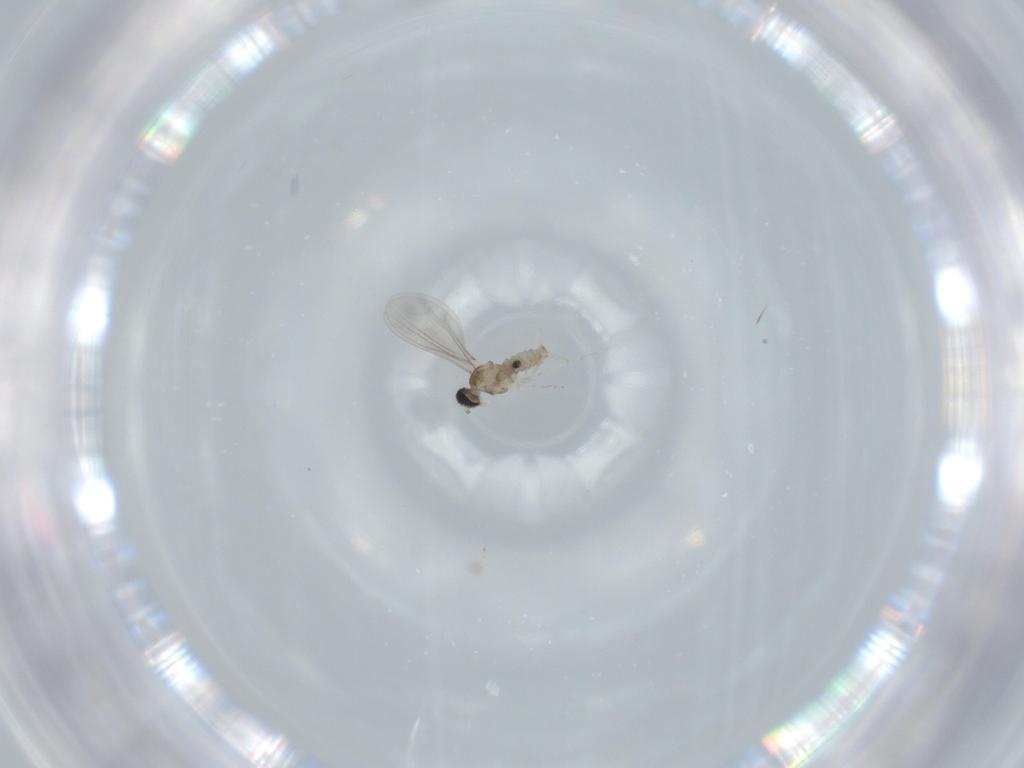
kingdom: Animalia
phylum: Arthropoda
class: Insecta
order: Diptera
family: Cecidomyiidae
